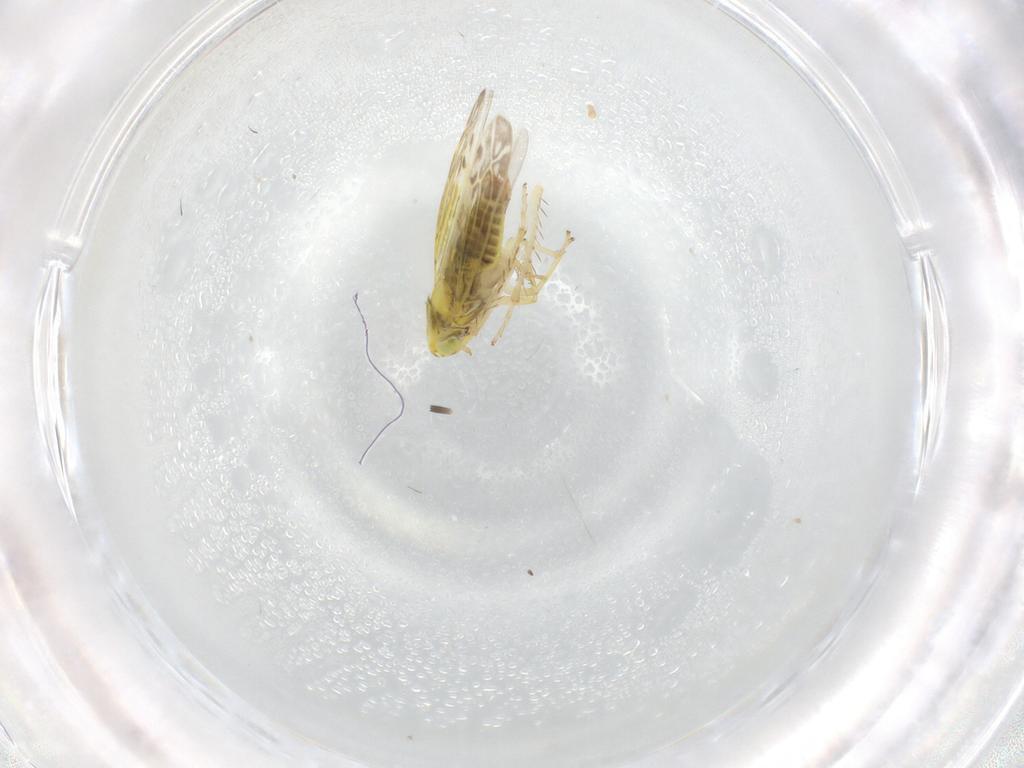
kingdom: Animalia
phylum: Arthropoda
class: Insecta
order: Hemiptera
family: Cicadellidae
